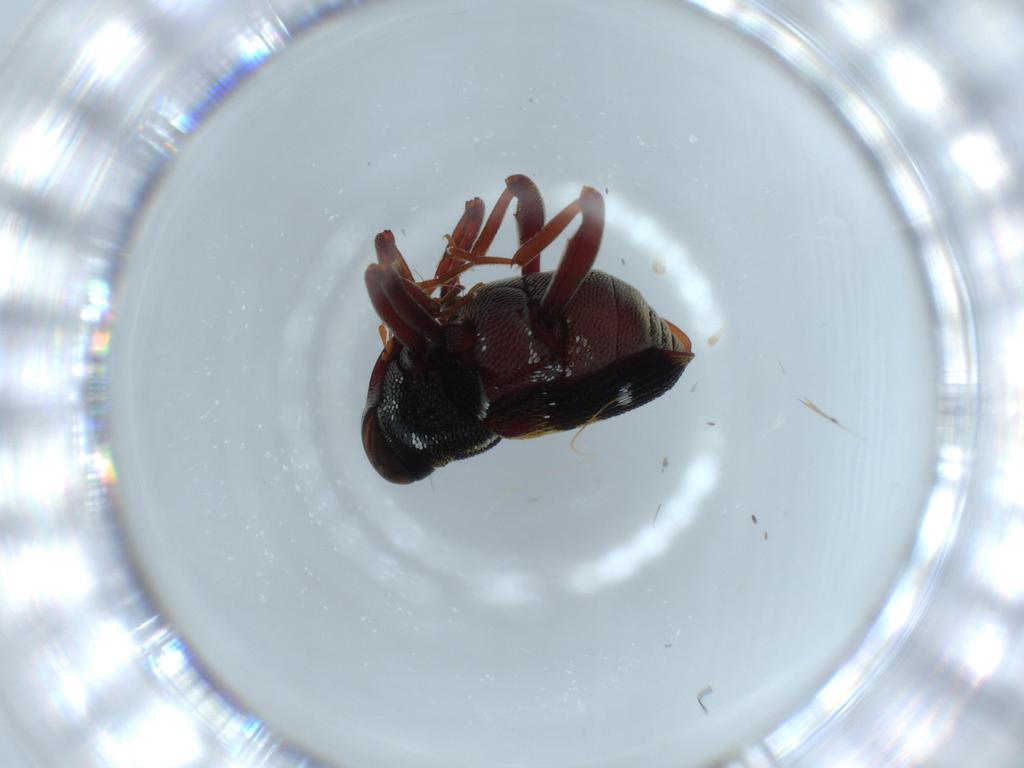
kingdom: Animalia
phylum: Arthropoda
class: Insecta
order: Coleoptera
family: Curculionidae
